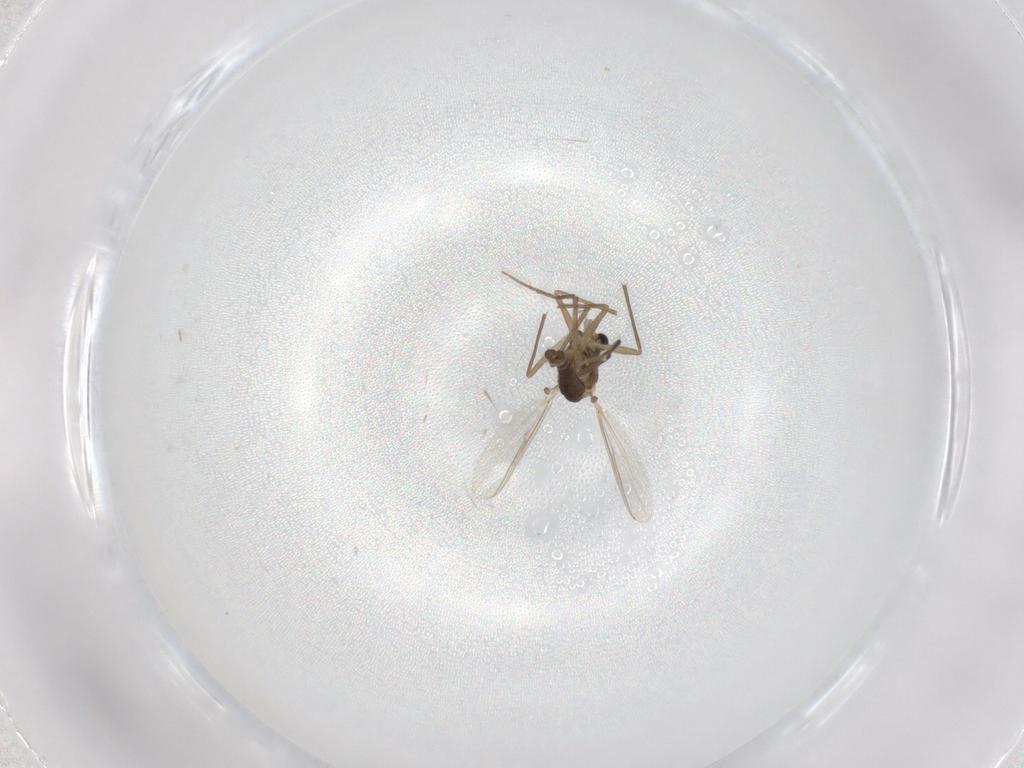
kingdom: Animalia
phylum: Arthropoda
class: Insecta
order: Diptera
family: Chironomidae
